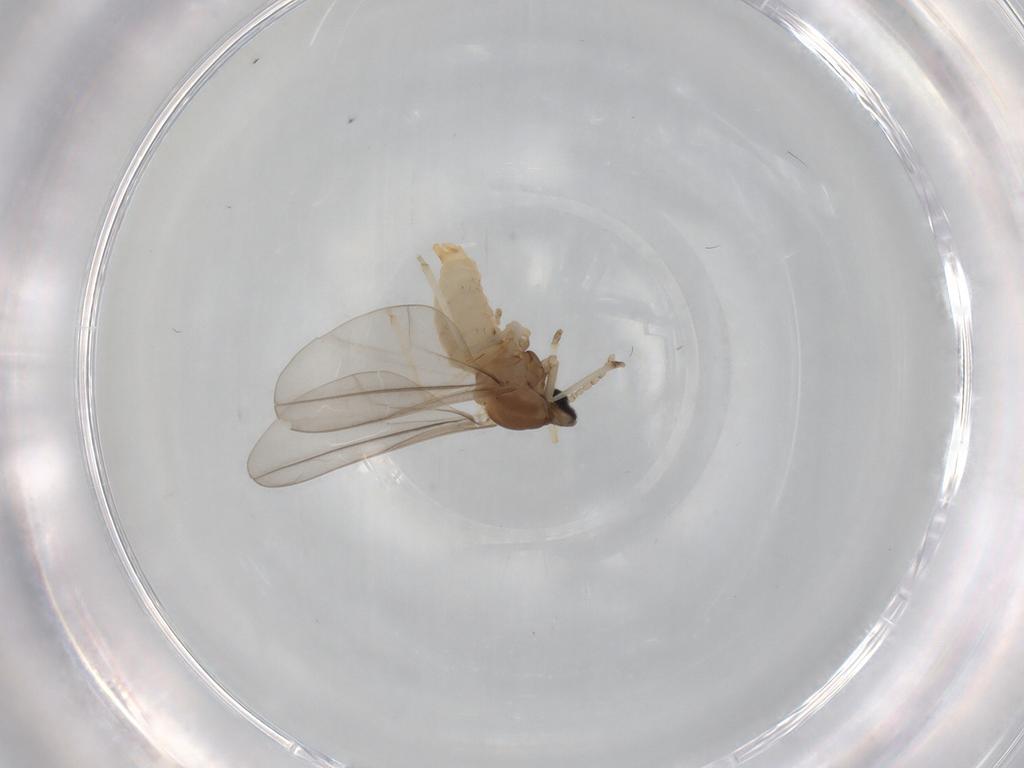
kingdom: Animalia
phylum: Arthropoda
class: Insecta
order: Diptera
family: Cecidomyiidae
